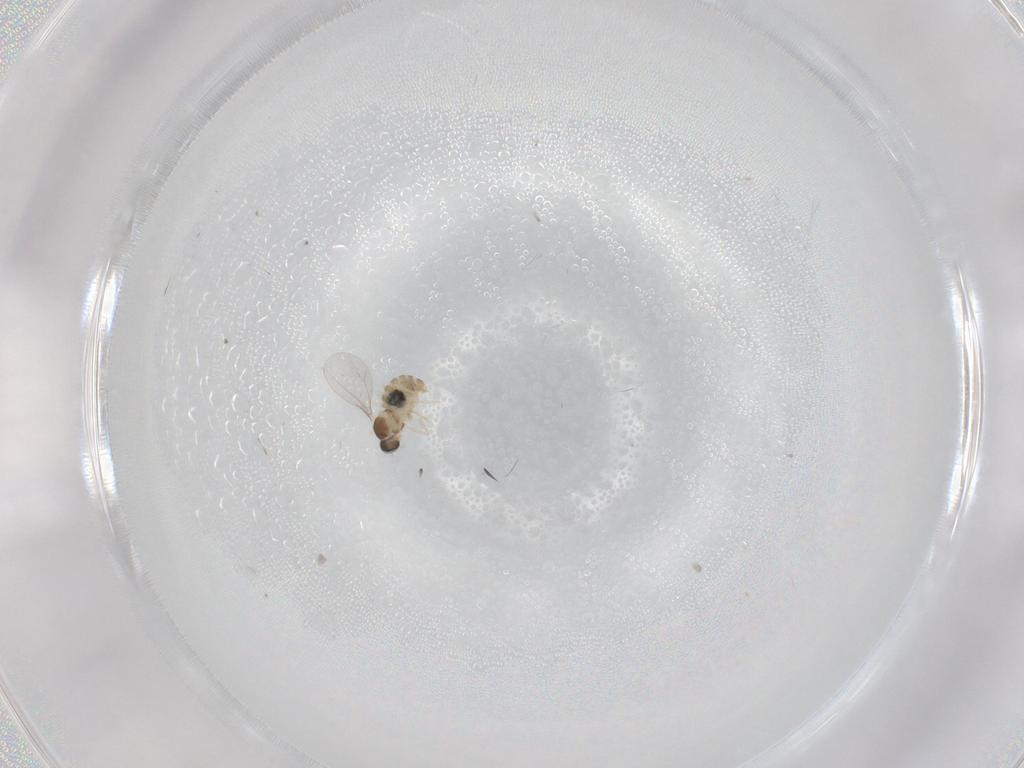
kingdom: Animalia
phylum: Arthropoda
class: Insecta
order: Diptera
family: Cecidomyiidae
